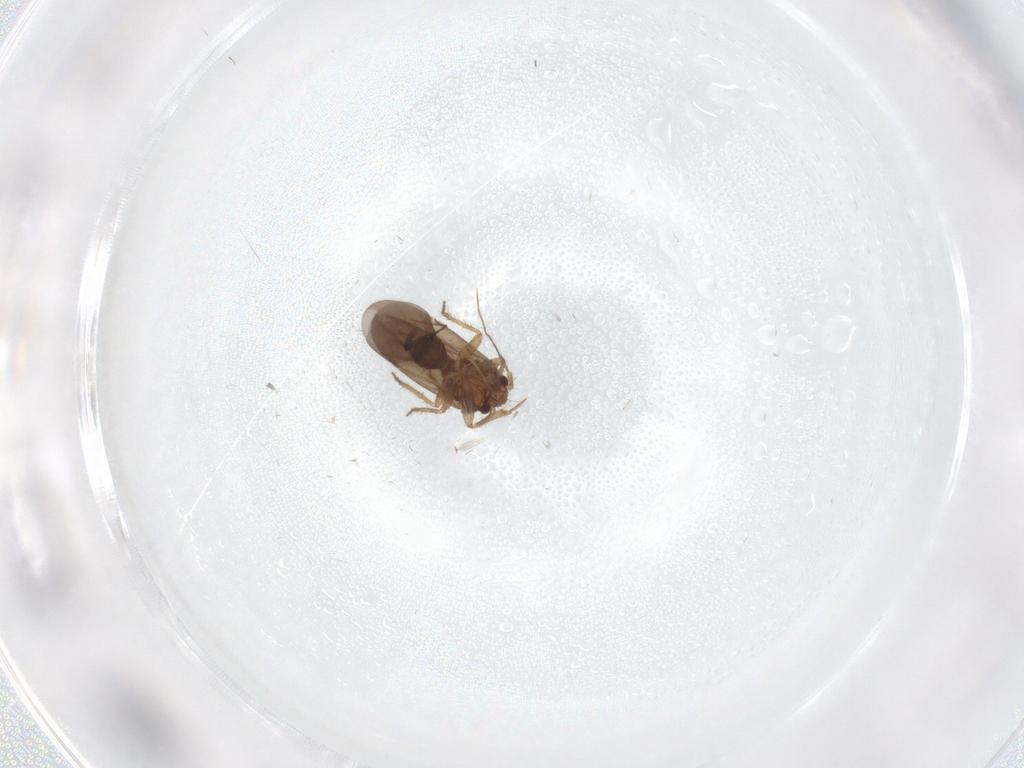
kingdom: Animalia
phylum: Arthropoda
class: Insecta
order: Hemiptera
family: Ceratocombidae
